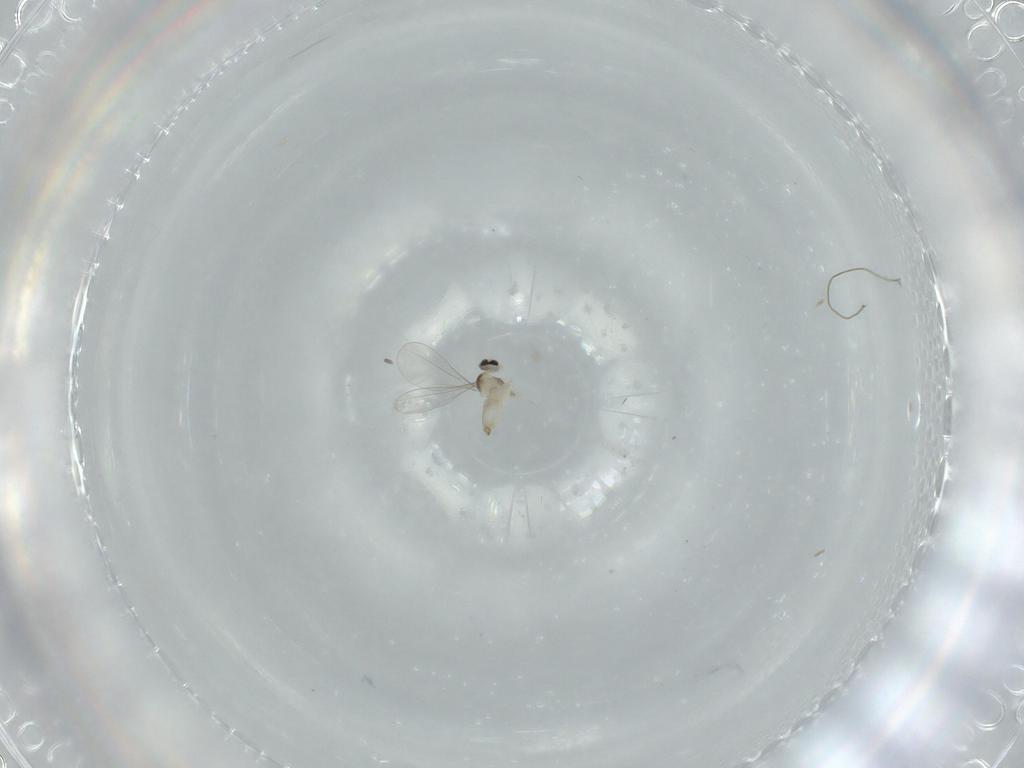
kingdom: Animalia
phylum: Arthropoda
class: Insecta
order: Diptera
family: Cecidomyiidae
